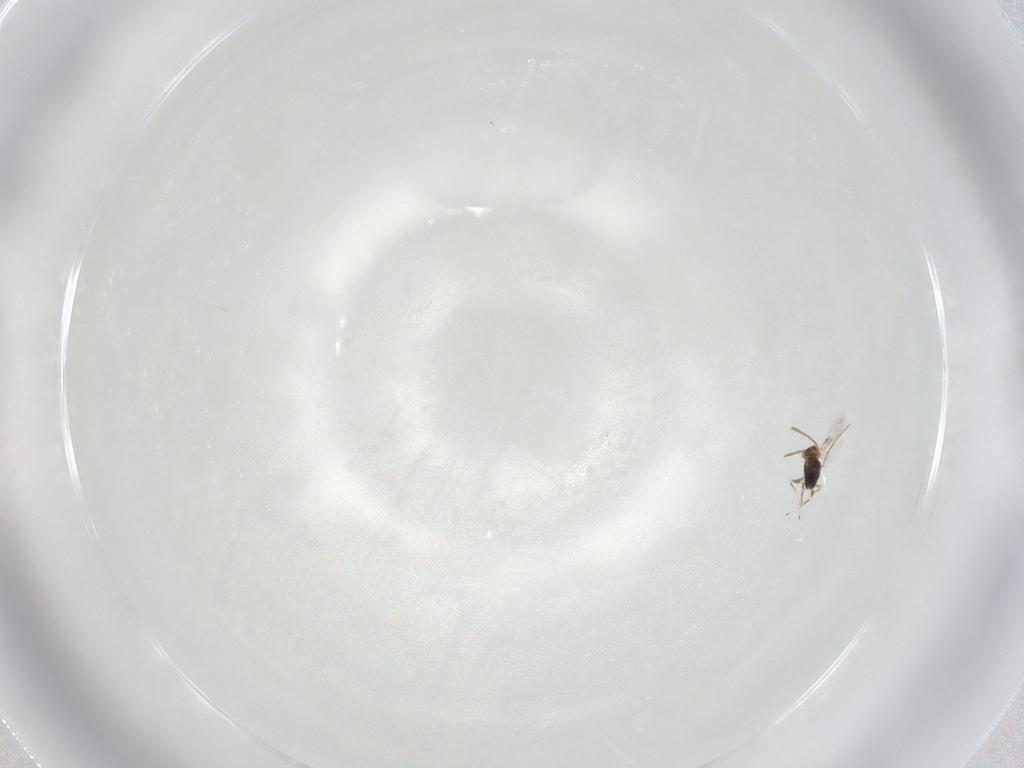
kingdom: Animalia
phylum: Arthropoda
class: Insecta
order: Hymenoptera
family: Azotidae
